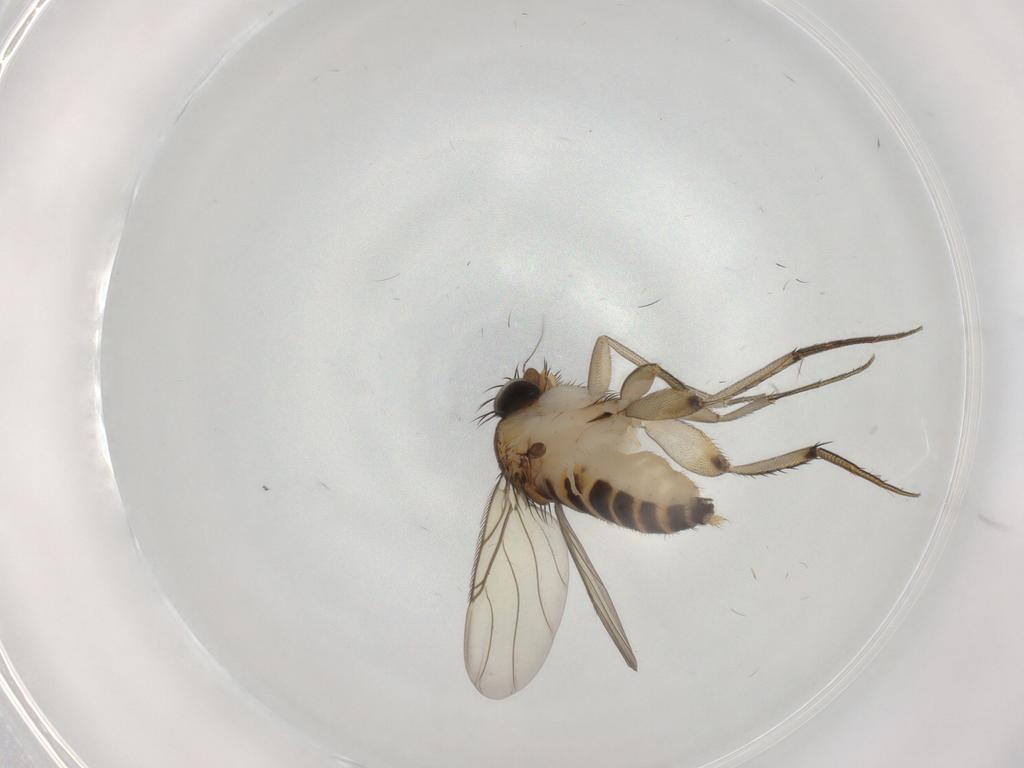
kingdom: Animalia
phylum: Arthropoda
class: Insecta
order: Diptera
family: Phoridae
